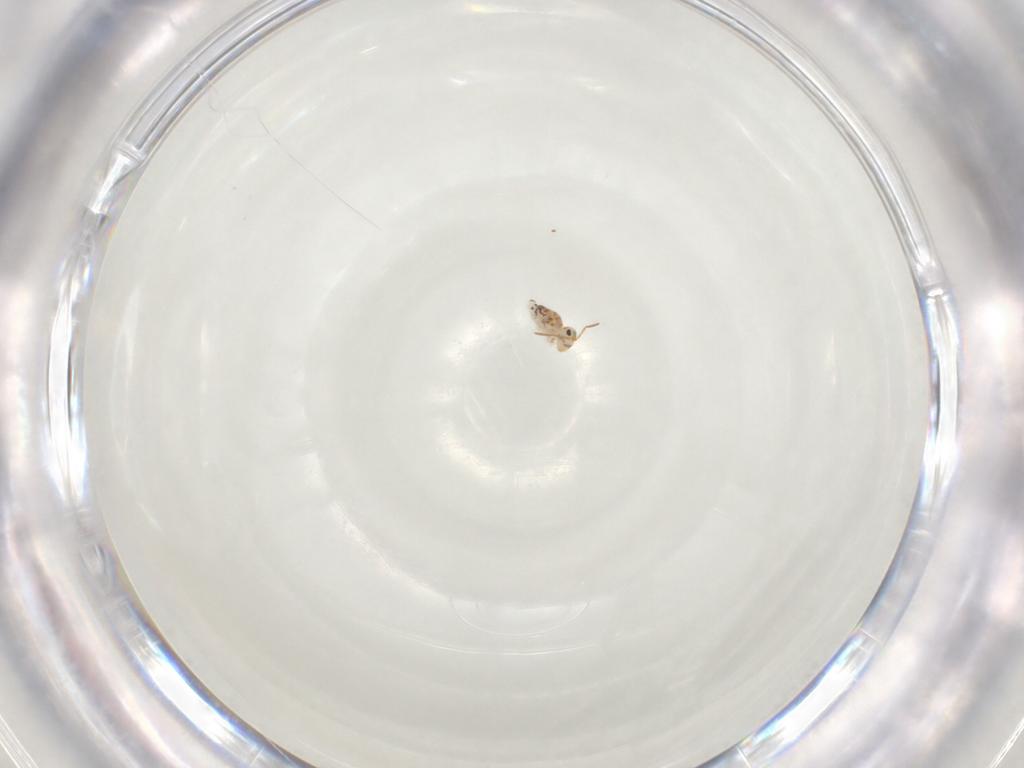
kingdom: Animalia
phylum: Arthropoda
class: Collembola
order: Symphypleona
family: Bourletiellidae
